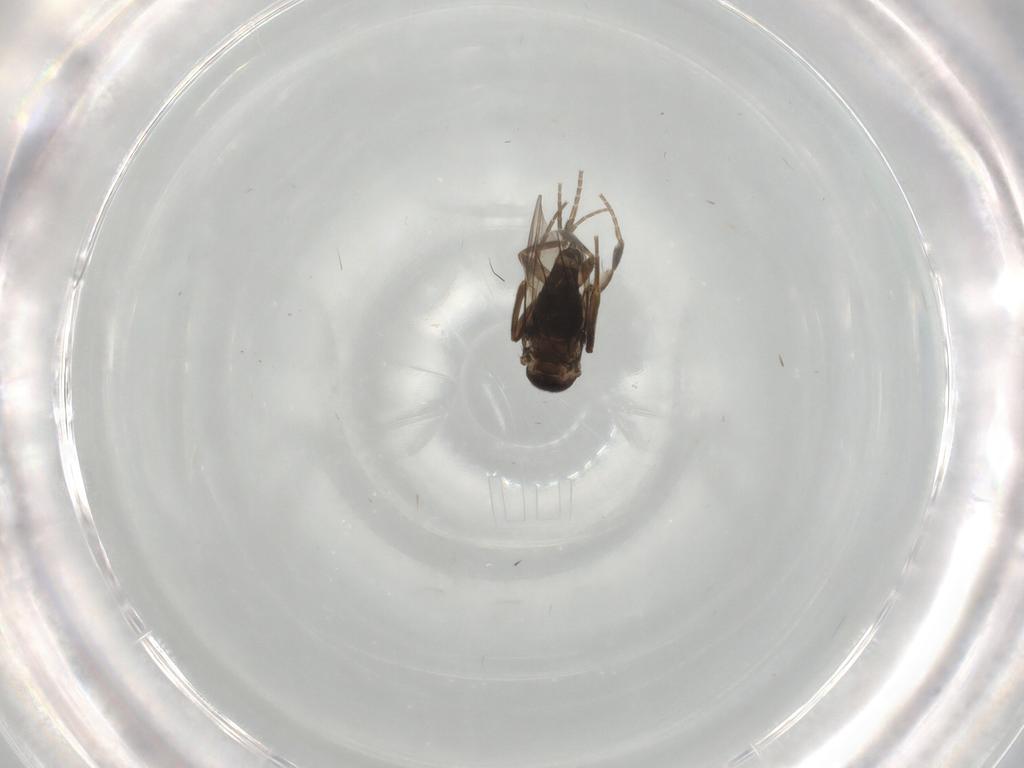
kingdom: Animalia
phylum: Arthropoda
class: Insecta
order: Diptera
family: Phoridae
